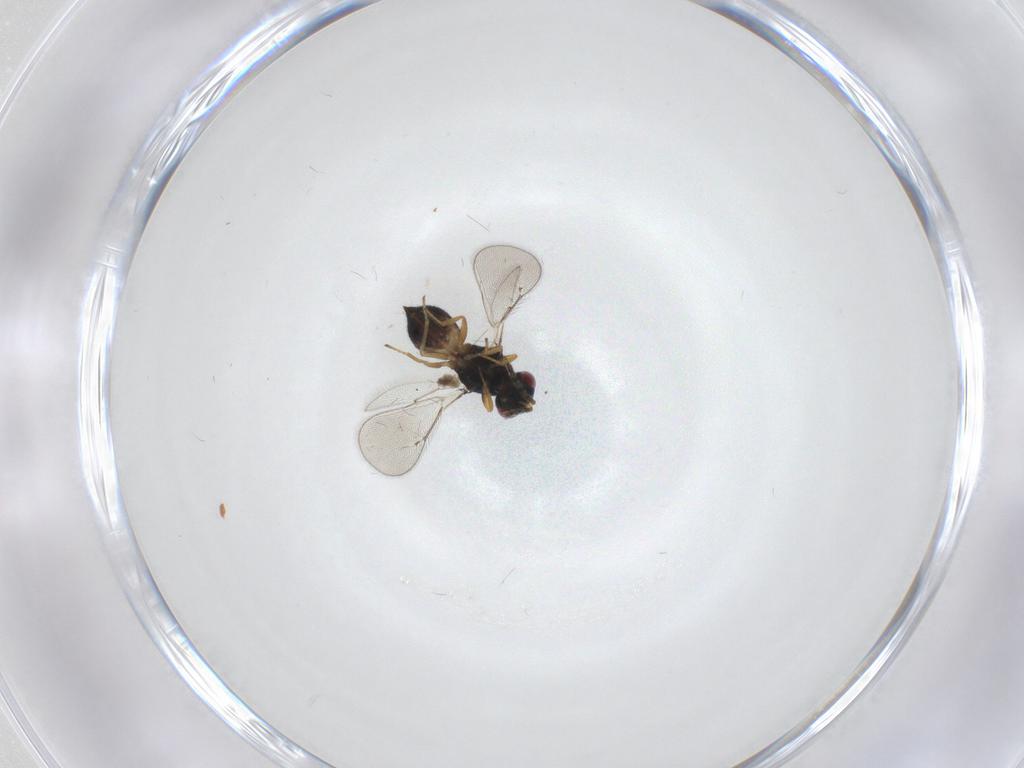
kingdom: Animalia
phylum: Arthropoda
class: Insecta
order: Hymenoptera
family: Eulophidae
